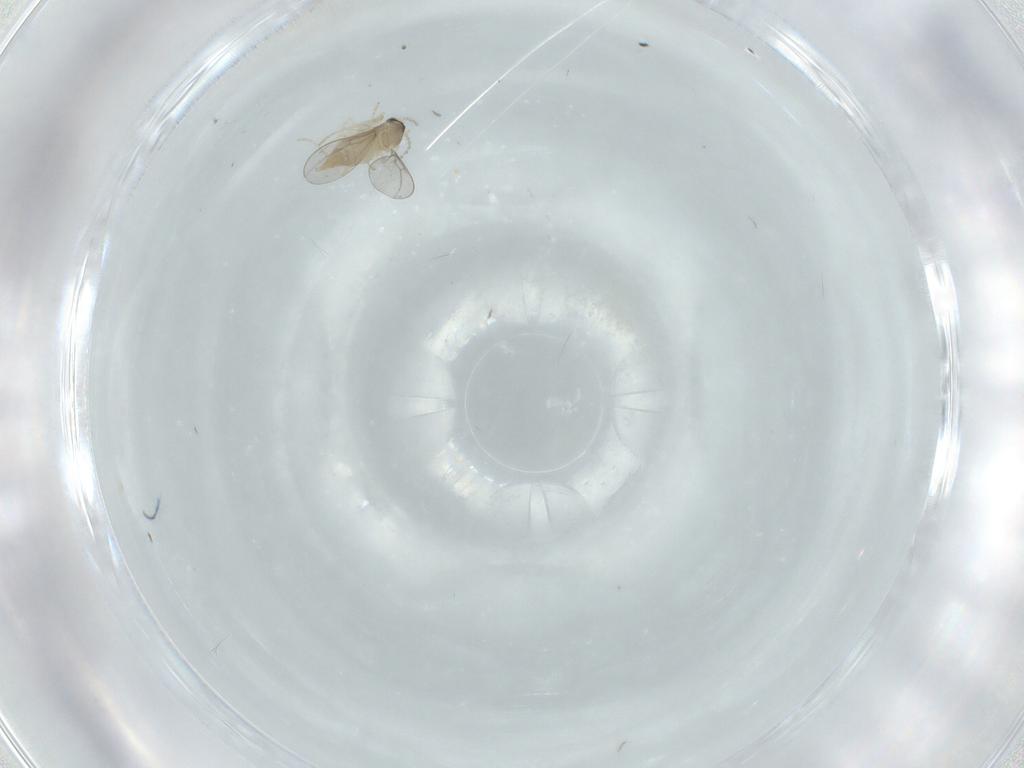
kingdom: Animalia
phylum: Arthropoda
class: Insecta
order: Diptera
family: Cecidomyiidae
